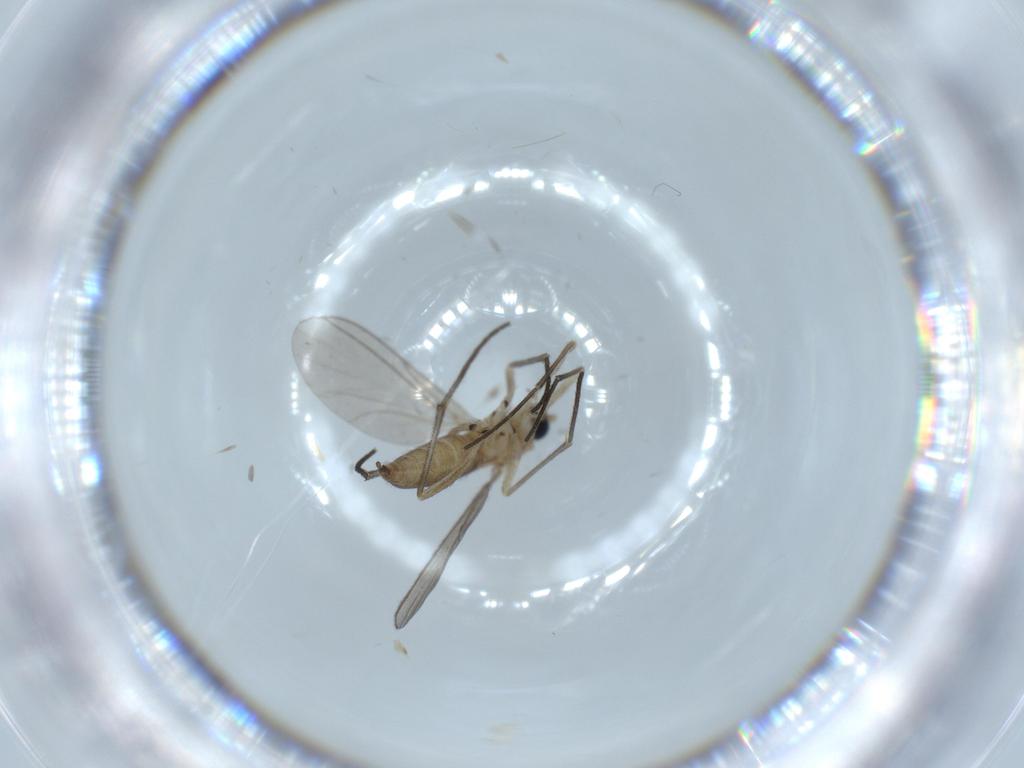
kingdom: Animalia
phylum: Arthropoda
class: Insecta
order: Diptera
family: Sciaridae
